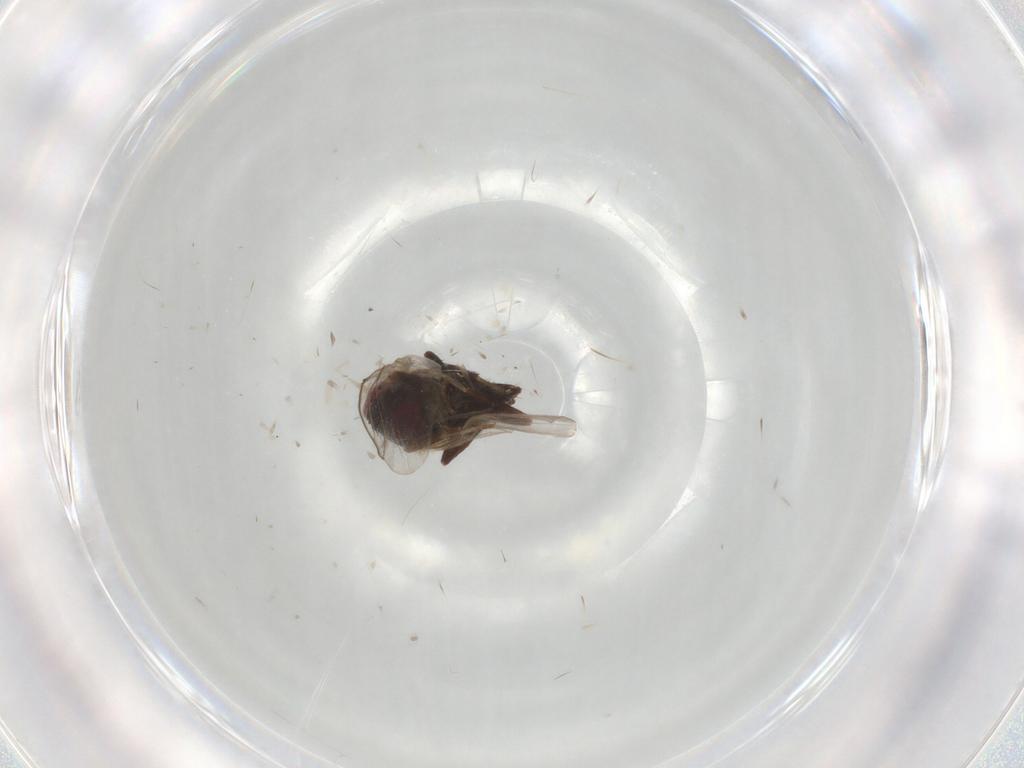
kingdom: Animalia
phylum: Arthropoda
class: Insecta
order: Diptera
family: Agromyzidae
